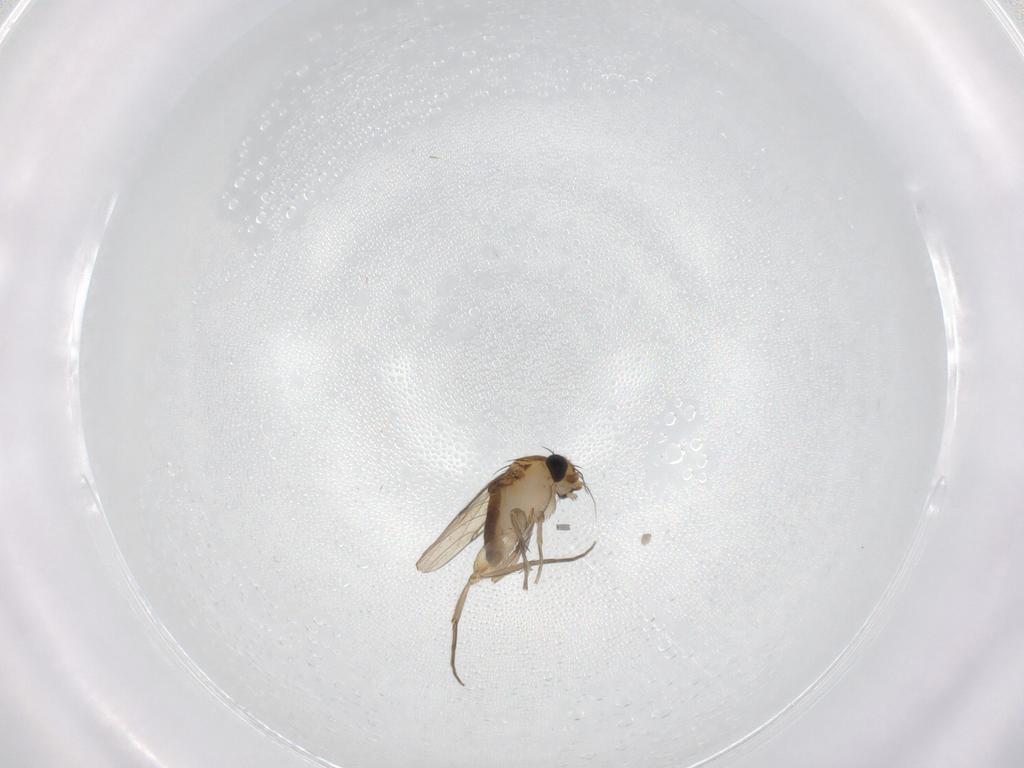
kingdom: Animalia
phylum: Arthropoda
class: Insecta
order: Diptera
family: Phoridae
